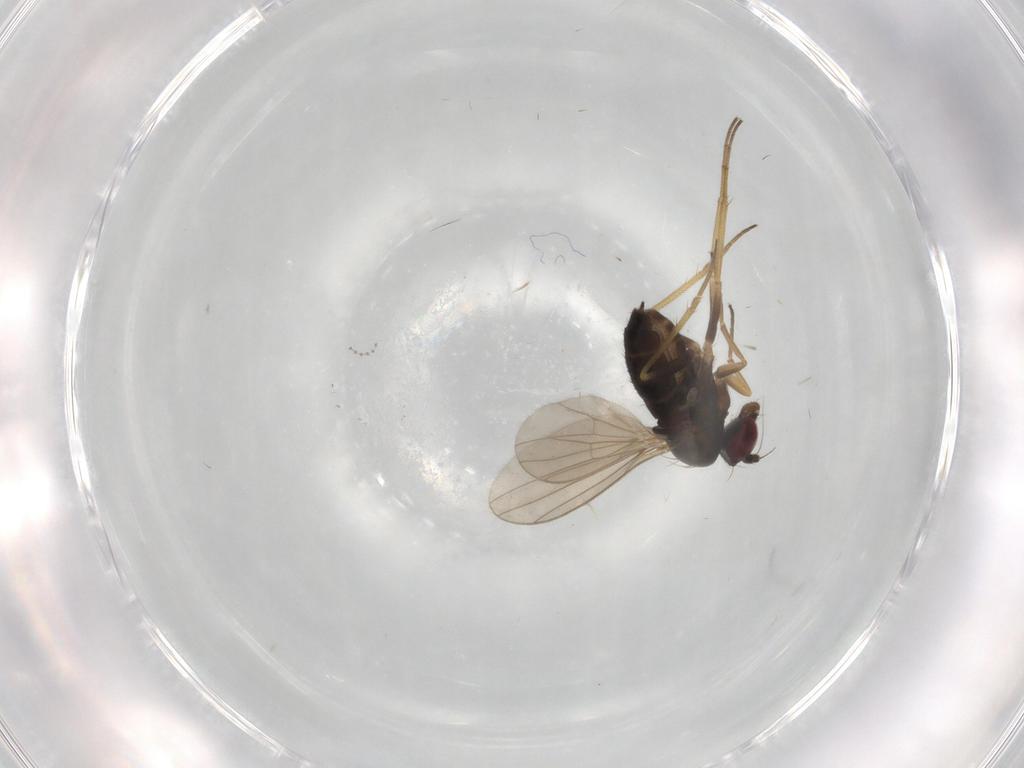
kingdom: Animalia
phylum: Arthropoda
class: Insecta
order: Diptera
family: Dolichopodidae
